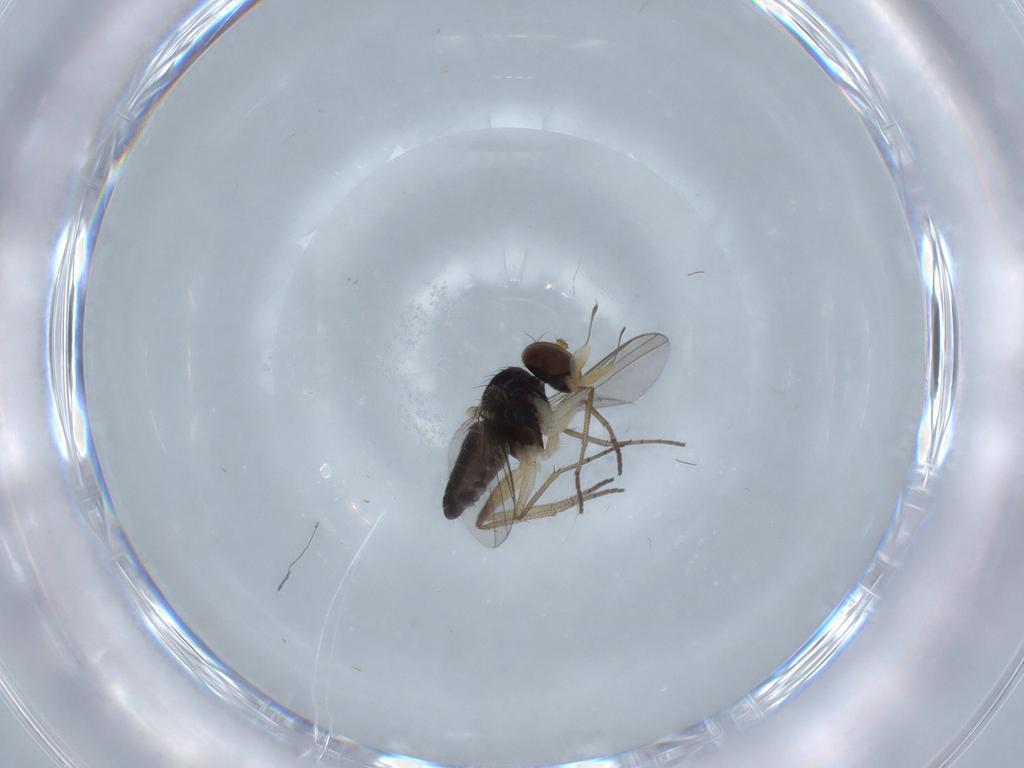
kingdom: Animalia
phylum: Arthropoda
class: Insecta
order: Diptera
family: Dolichopodidae
